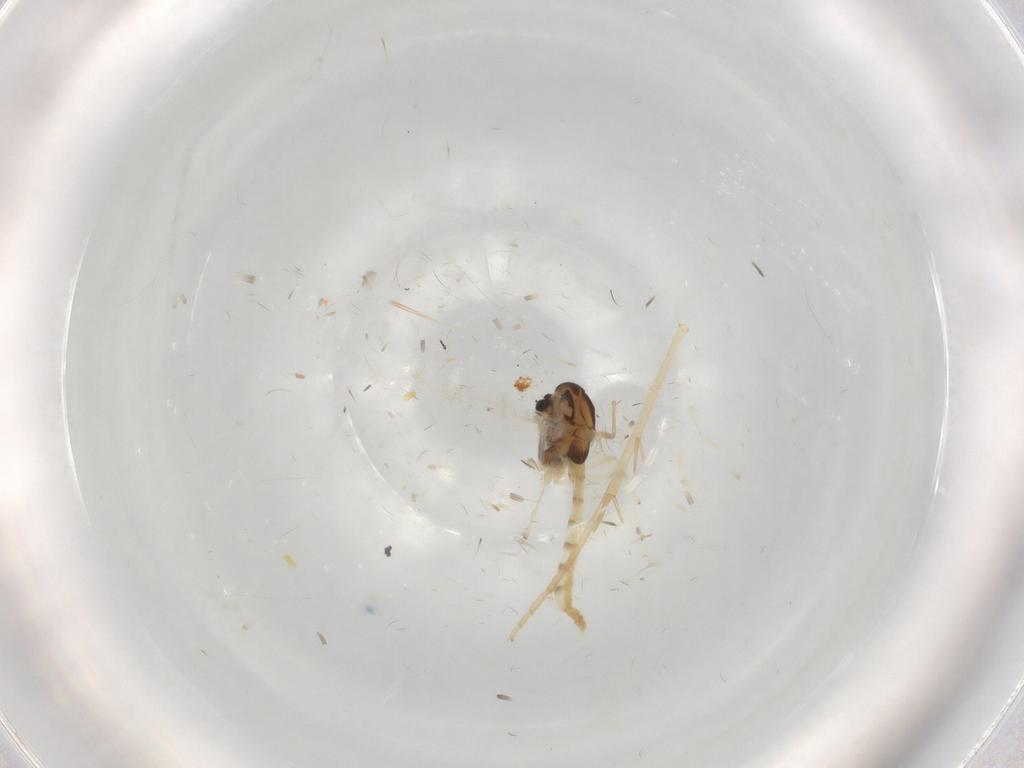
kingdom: Animalia
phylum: Arthropoda
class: Insecta
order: Diptera
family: Chironomidae
